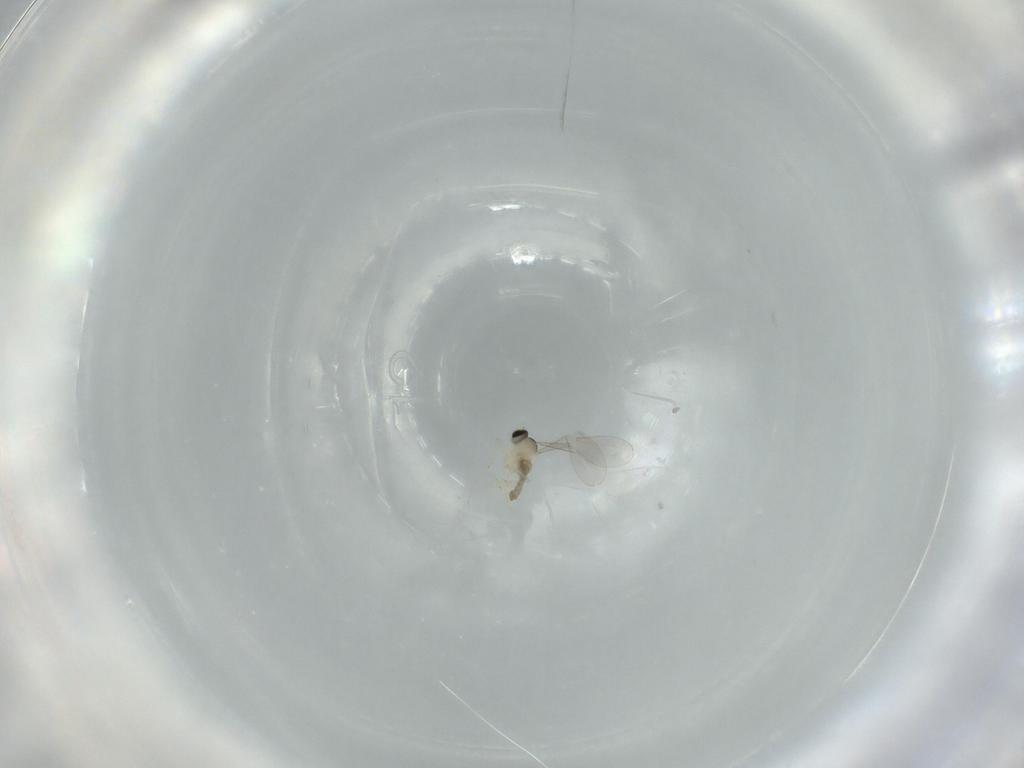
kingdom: Animalia
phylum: Arthropoda
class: Insecta
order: Diptera
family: Cecidomyiidae
